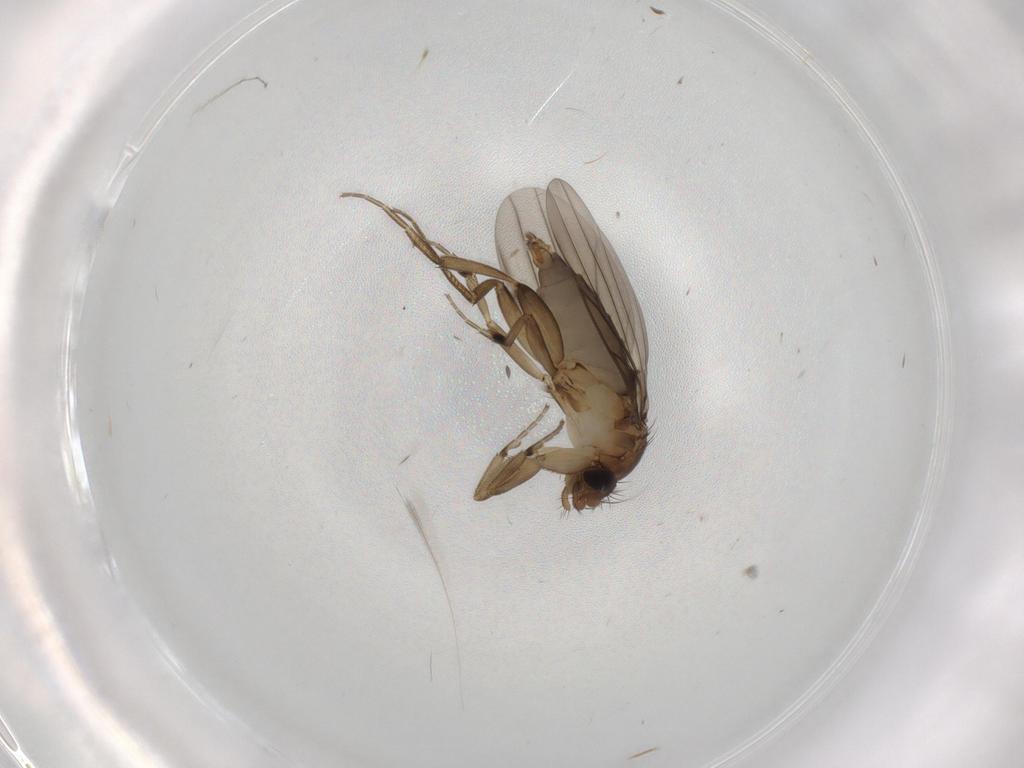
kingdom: Animalia
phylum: Arthropoda
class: Insecta
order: Diptera
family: Phoridae
